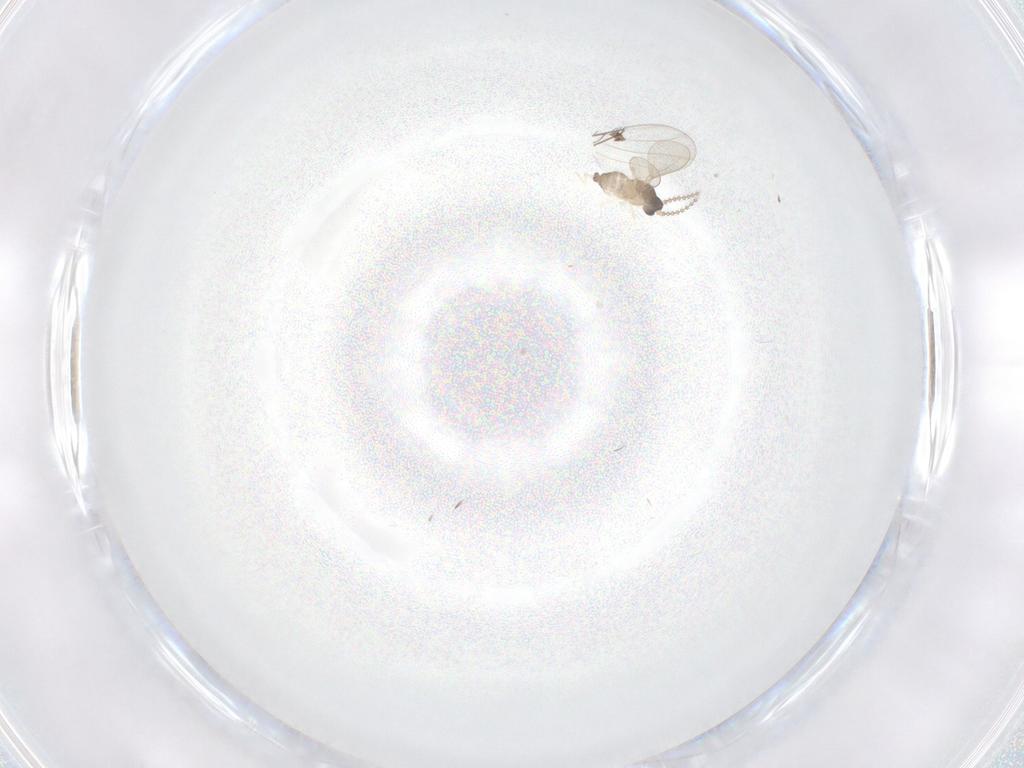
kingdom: Animalia
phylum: Arthropoda
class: Insecta
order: Diptera
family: Cecidomyiidae
